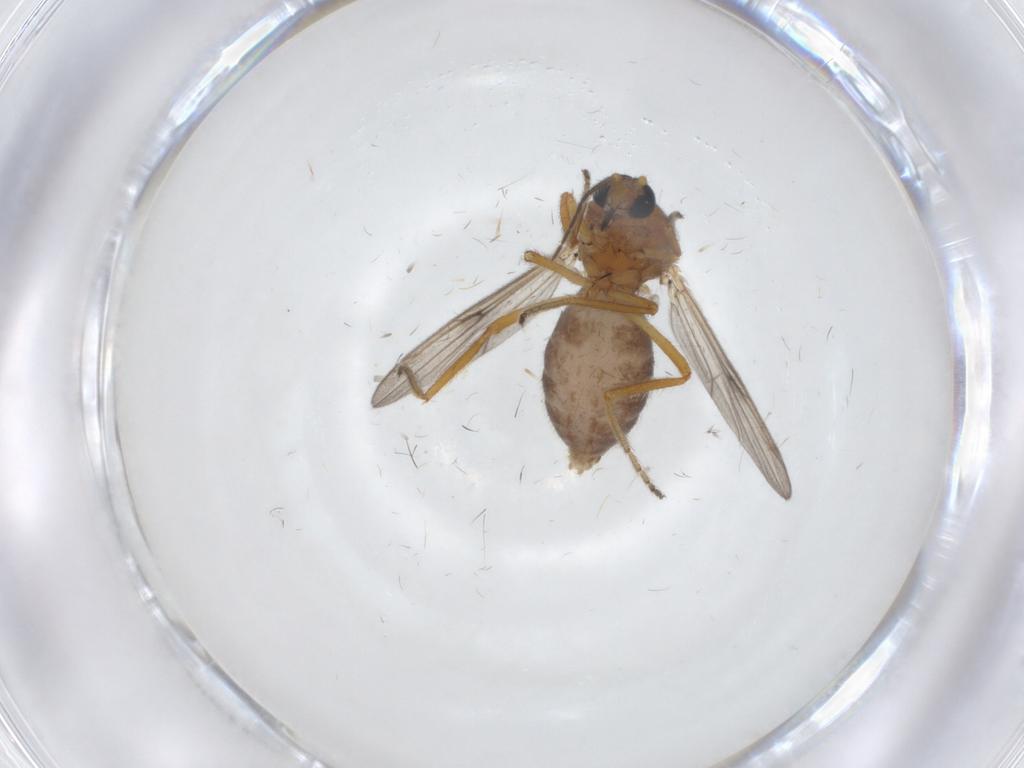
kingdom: Animalia
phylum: Arthropoda
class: Insecta
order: Diptera
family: Ceratopogonidae
